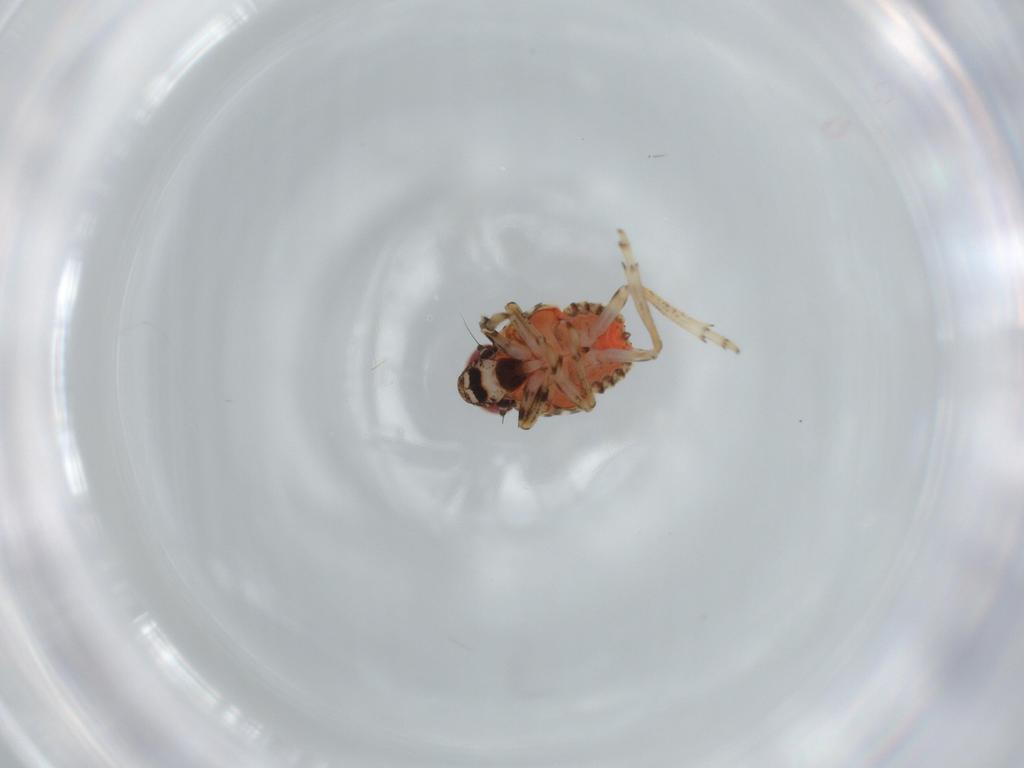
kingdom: Animalia
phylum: Arthropoda
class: Insecta
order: Hemiptera
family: Issidae
